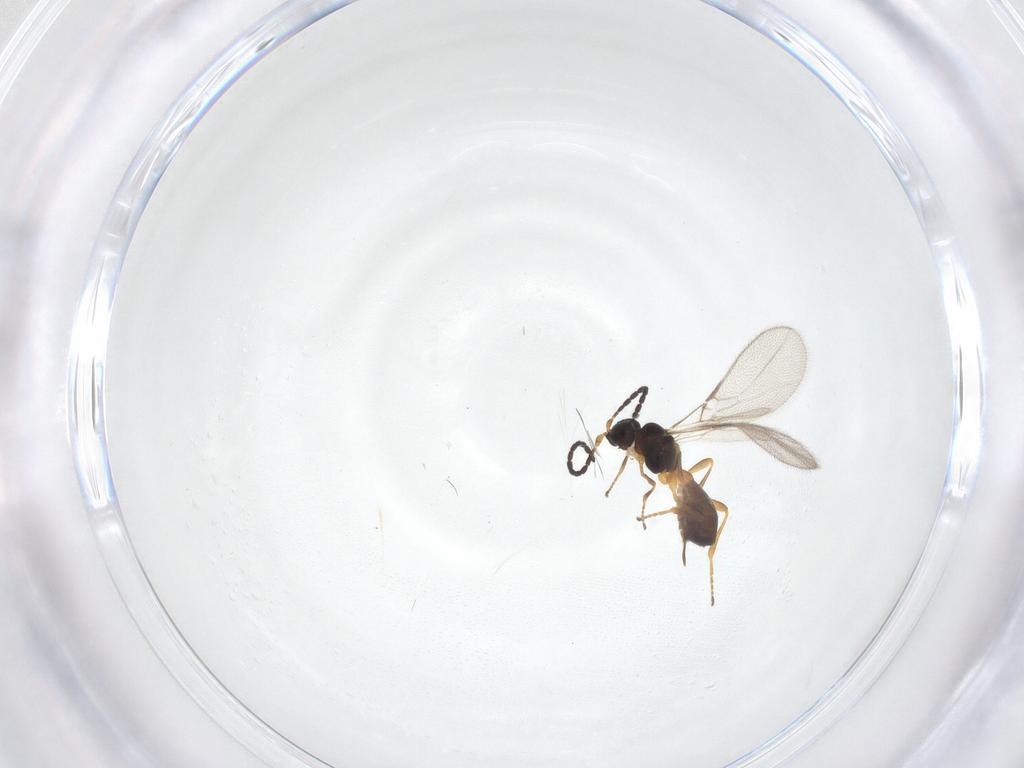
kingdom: Animalia
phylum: Arthropoda
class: Insecta
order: Hymenoptera
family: Braconidae
